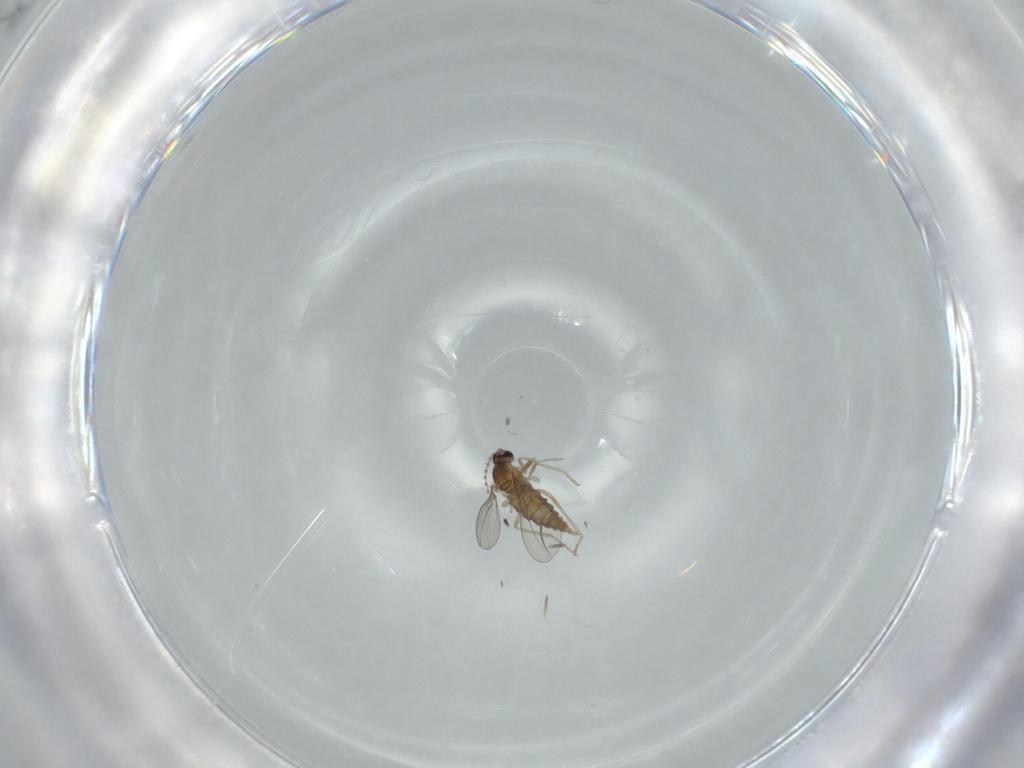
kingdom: Animalia
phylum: Arthropoda
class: Insecta
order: Diptera
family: Cecidomyiidae
